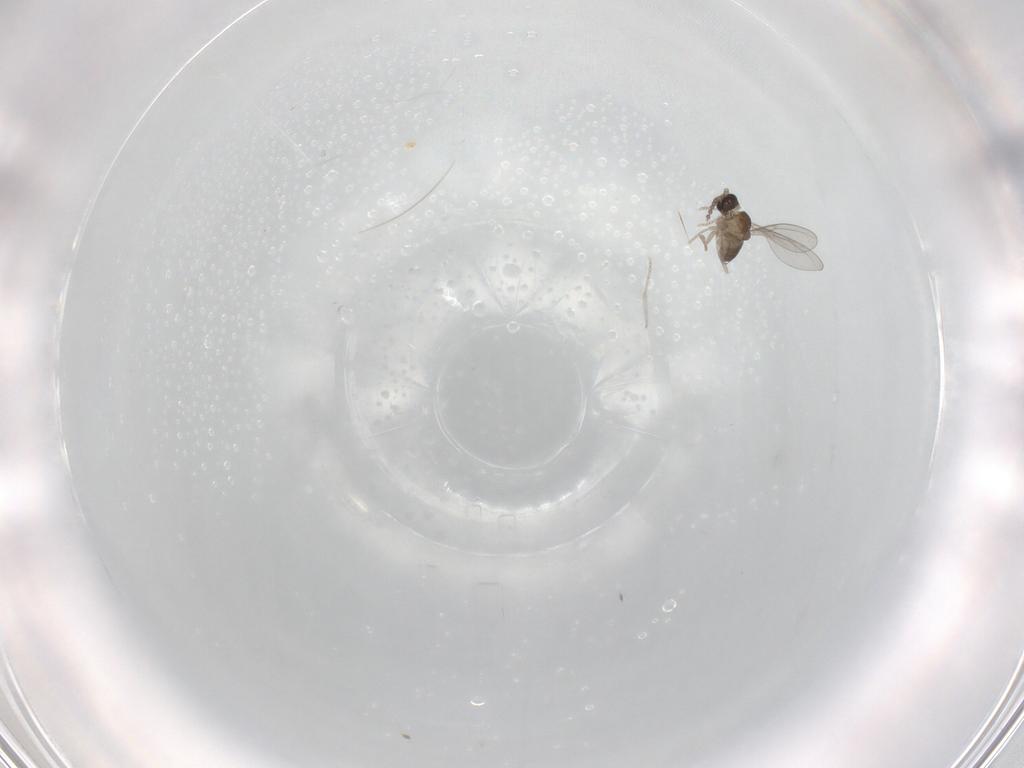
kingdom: Animalia
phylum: Arthropoda
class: Insecta
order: Diptera
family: Cecidomyiidae
